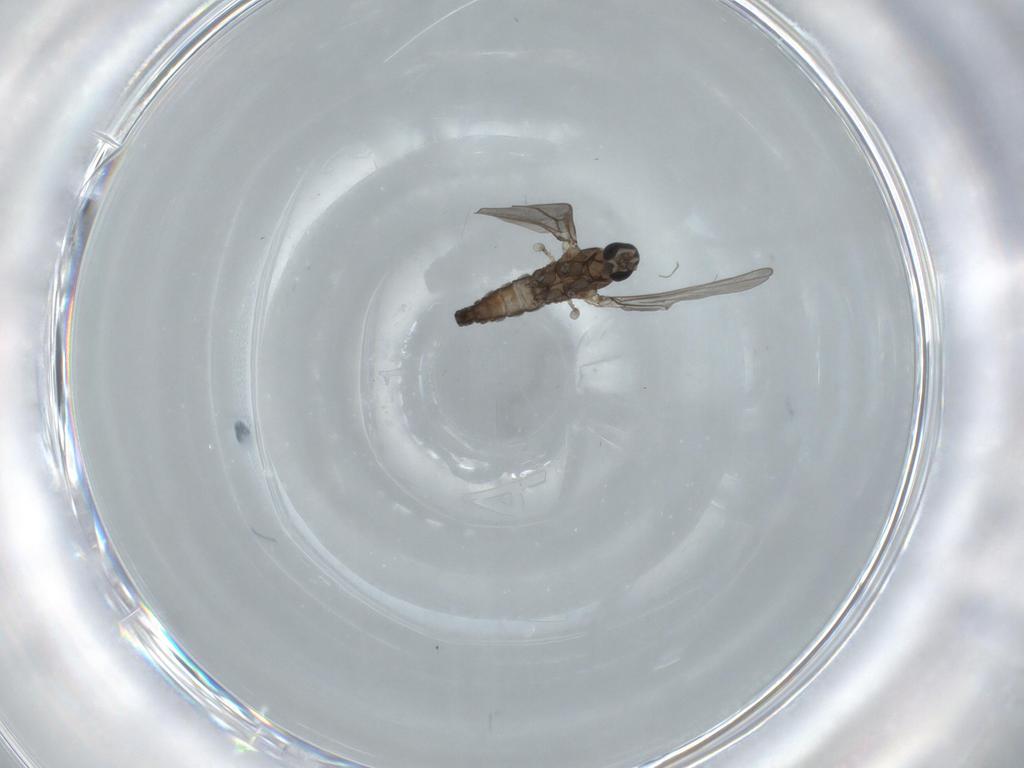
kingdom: Animalia
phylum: Arthropoda
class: Insecta
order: Diptera
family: Cecidomyiidae
